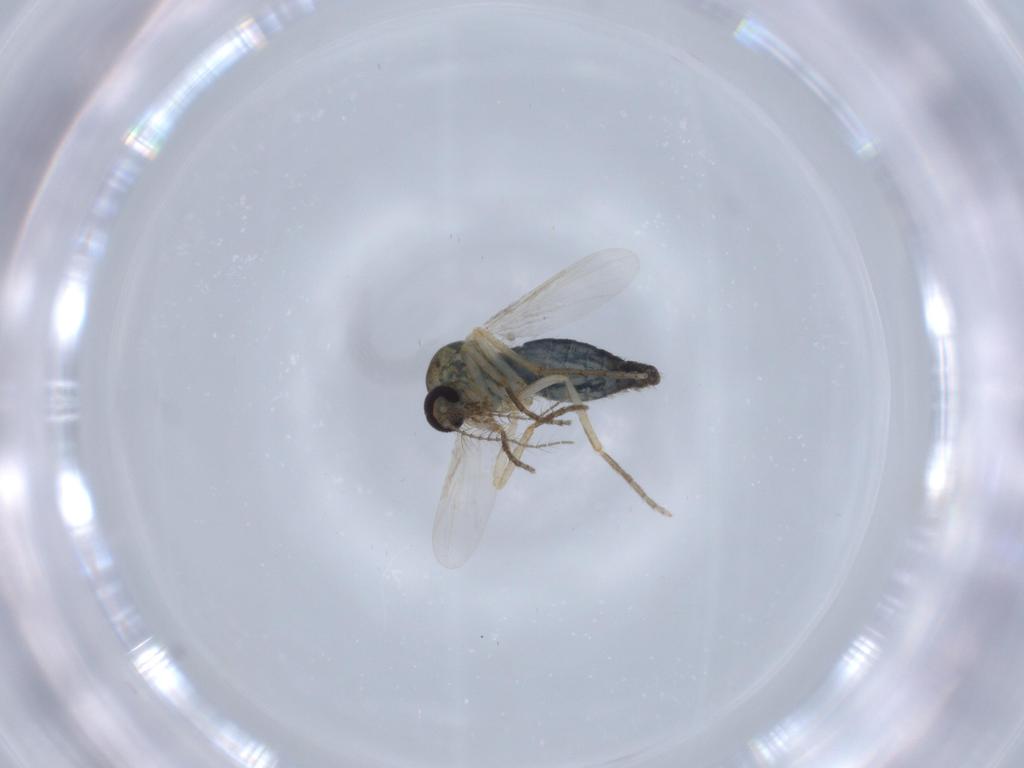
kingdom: Animalia
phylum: Arthropoda
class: Insecta
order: Diptera
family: Ceratopogonidae
